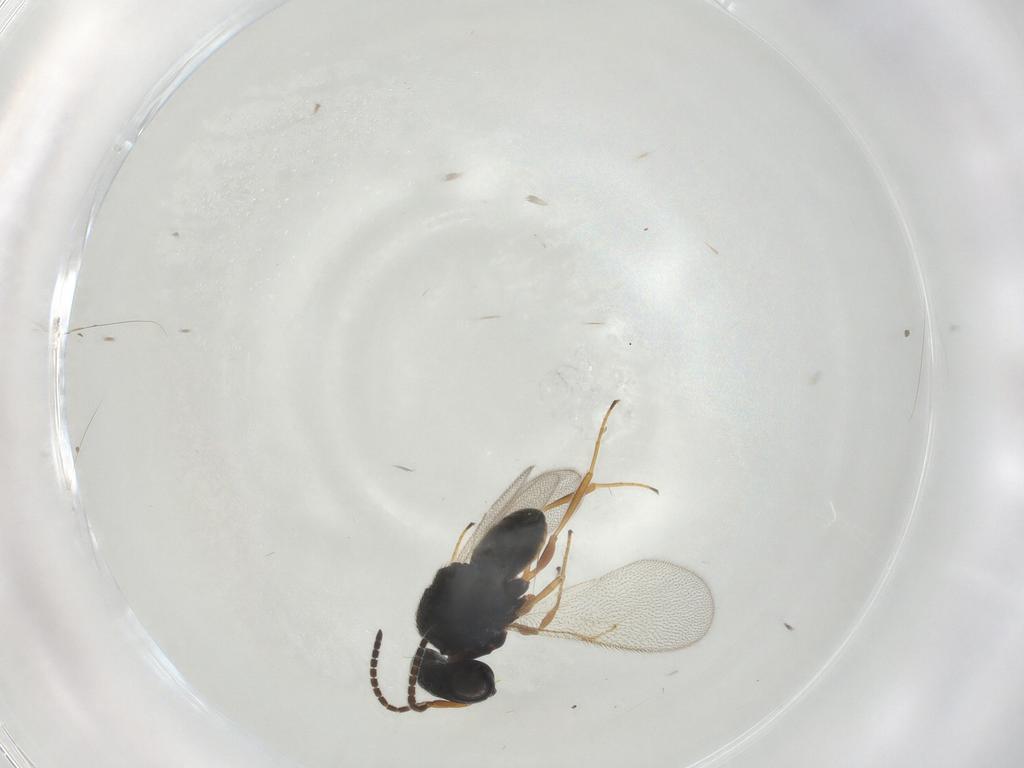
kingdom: Animalia
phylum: Arthropoda
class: Insecta
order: Hymenoptera
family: Scelionidae
